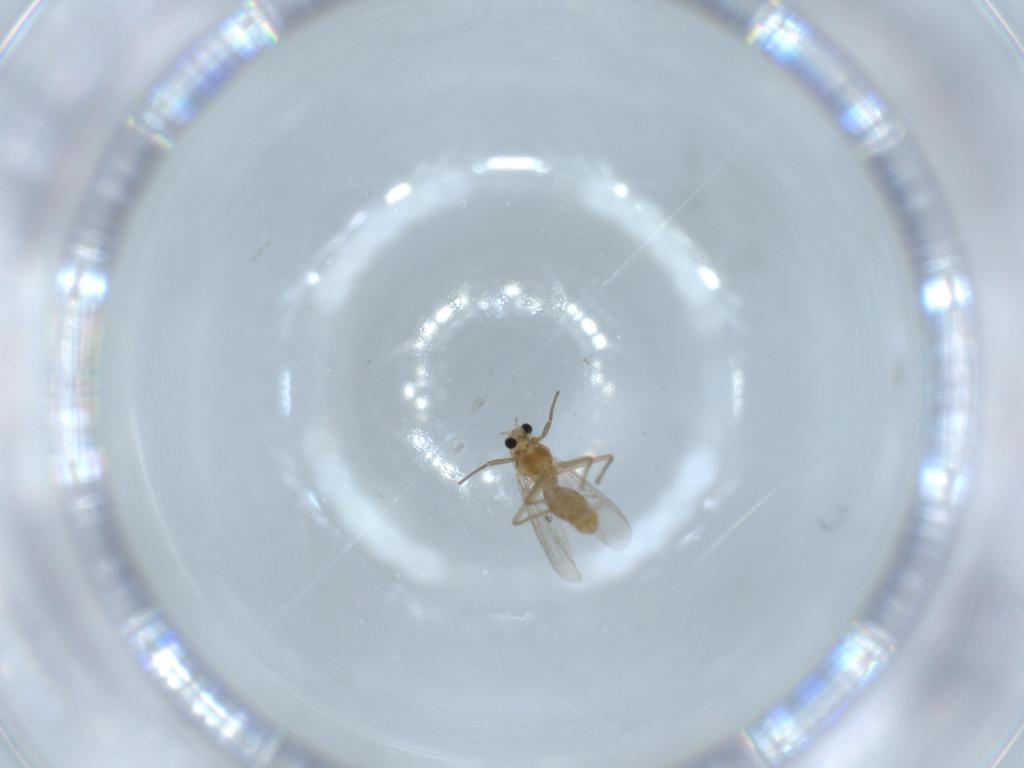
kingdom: Animalia
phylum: Arthropoda
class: Insecta
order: Diptera
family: Chironomidae
